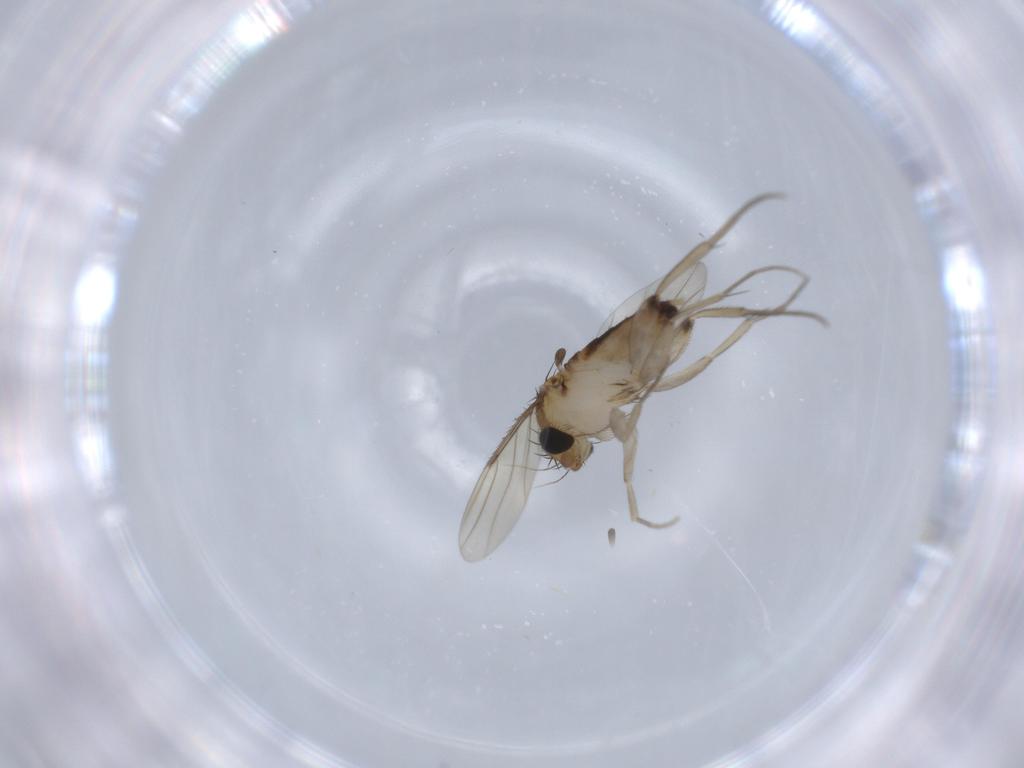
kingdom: Animalia
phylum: Arthropoda
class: Insecta
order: Diptera
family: Phoridae
